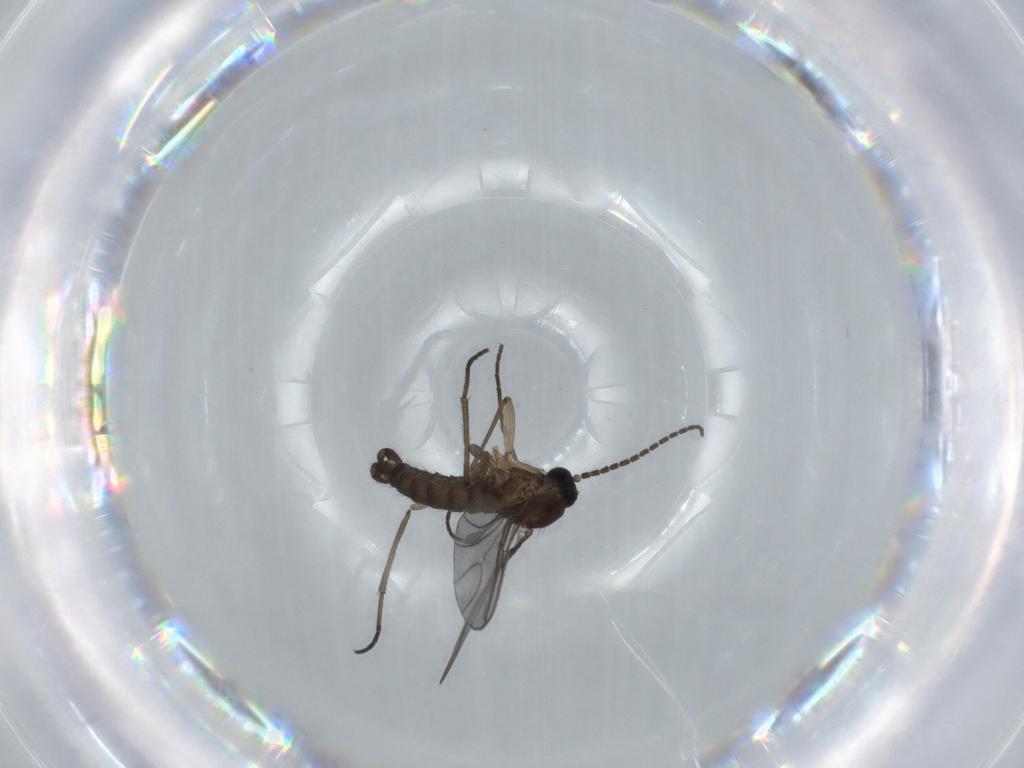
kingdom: Animalia
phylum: Arthropoda
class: Insecta
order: Diptera
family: Sciaridae
